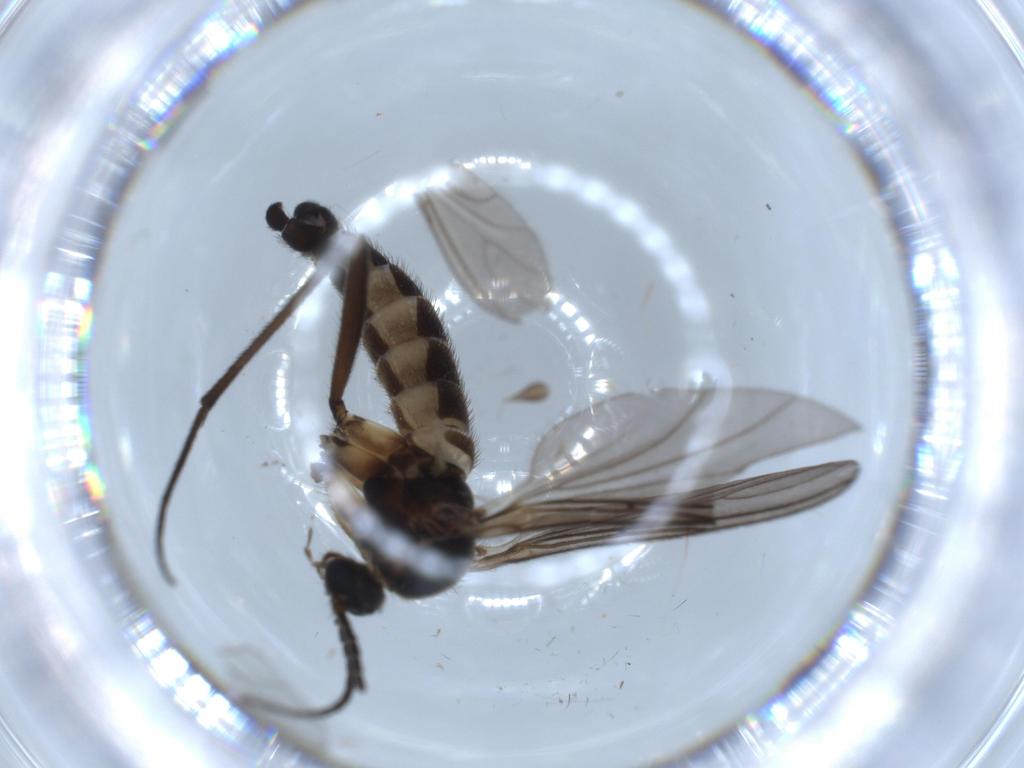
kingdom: Animalia
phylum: Arthropoda
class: Insecta
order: Diptera
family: Sciaridae
